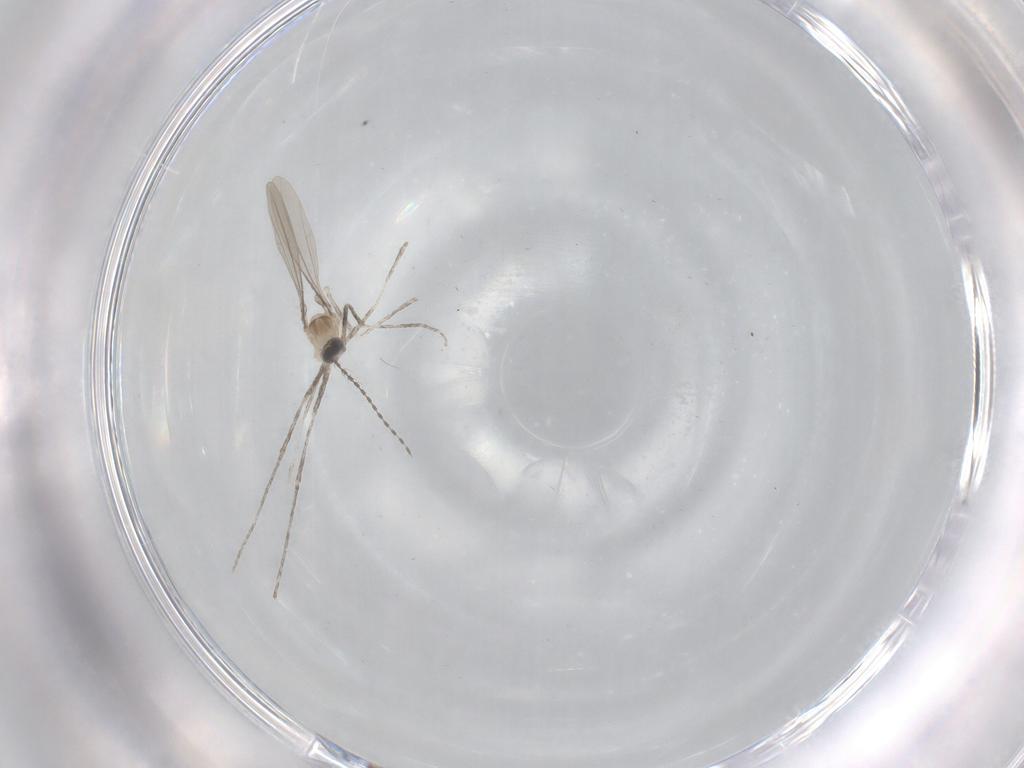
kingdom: Animalia
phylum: Arthropoda
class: Insecta
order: Diptera
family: Cecidomyiidae
